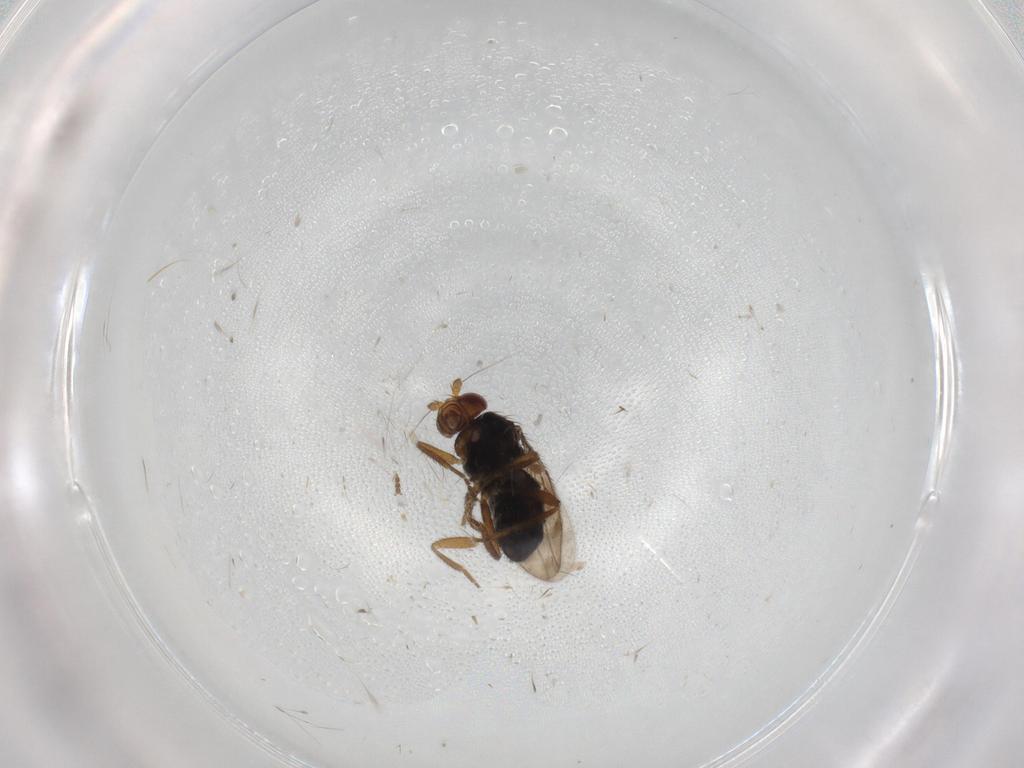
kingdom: Animalia
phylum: Arthropoda
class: Insecta
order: Diptera
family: Sphaeroceridae
